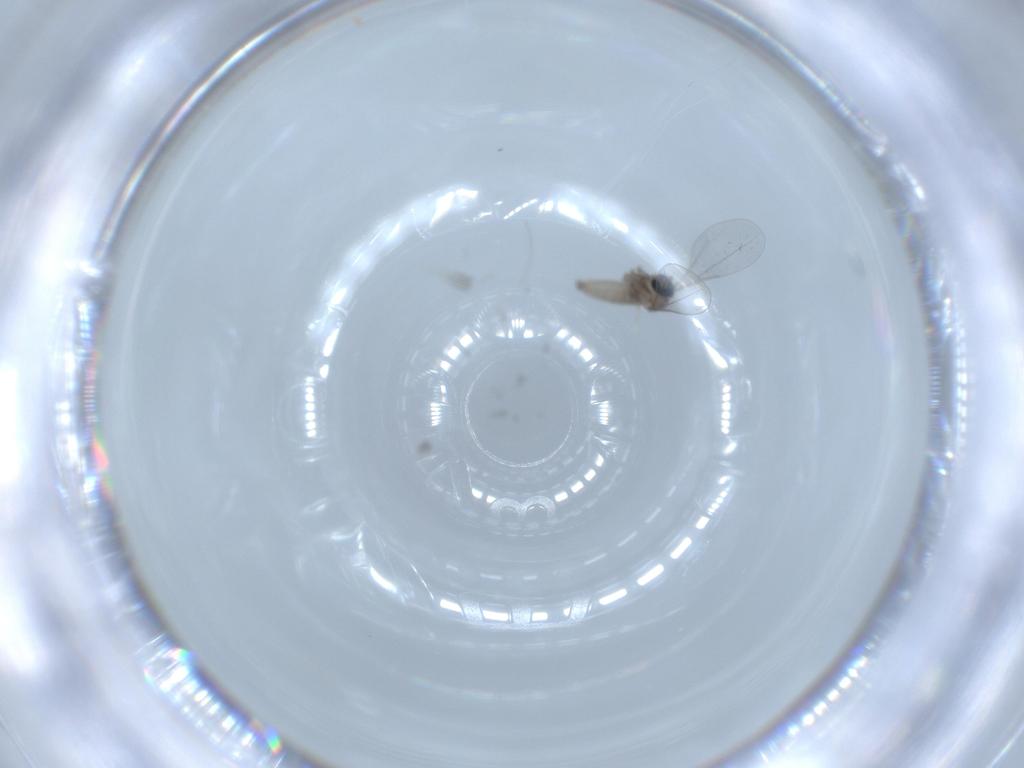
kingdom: Animalia
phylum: Arthropoda
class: Insecta
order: Diptera
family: Cecidomyiidae
